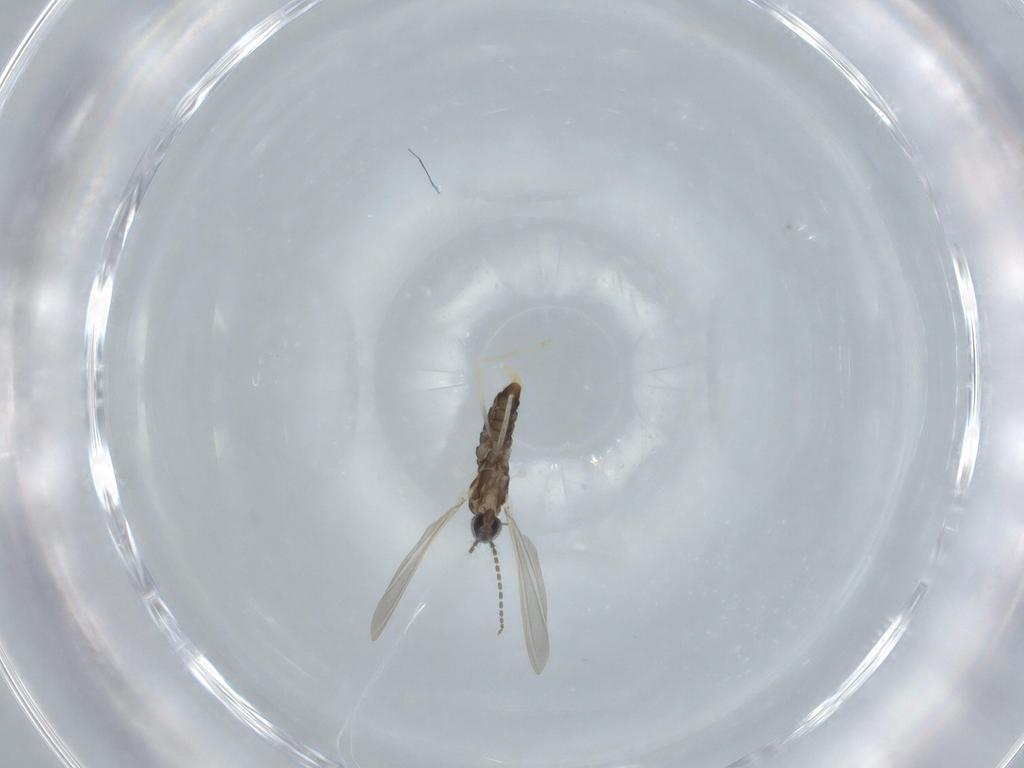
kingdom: Animalia
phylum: Arthropoda
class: Insecta
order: Diptera
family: Cecidomyiidae
